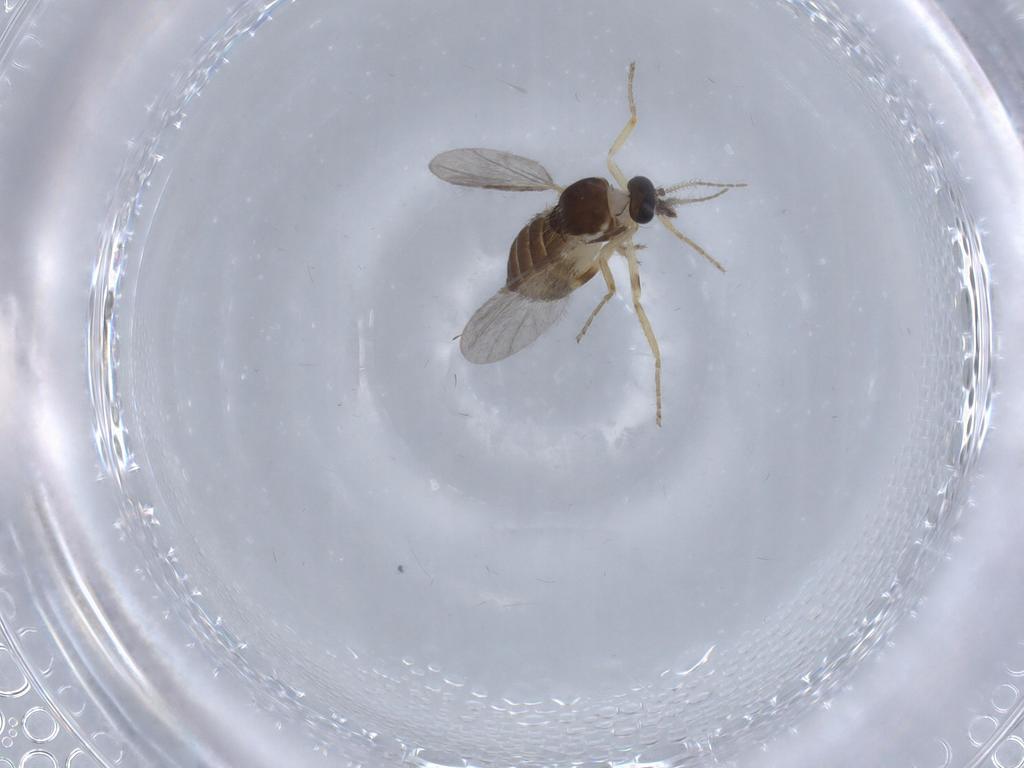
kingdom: Animalia
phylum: Arthropoda
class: Insecta
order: Diptera
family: Ceratopogonidae
